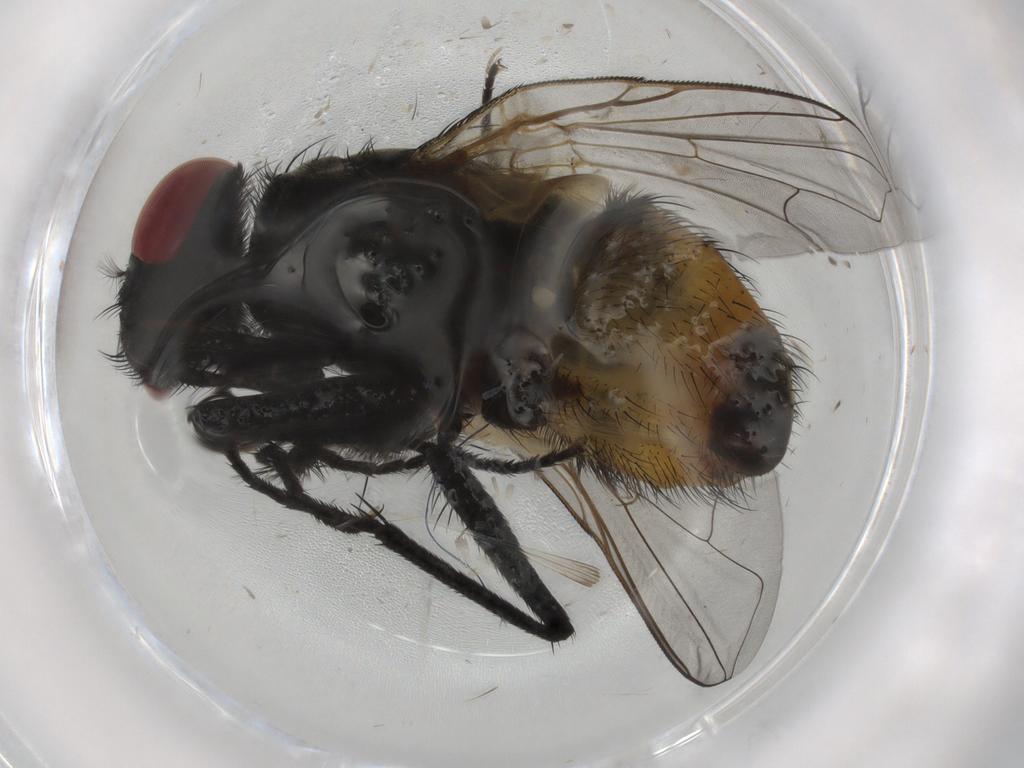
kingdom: Animalia
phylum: Arthropoda
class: Insecta
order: Diptera
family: Sciaridae
